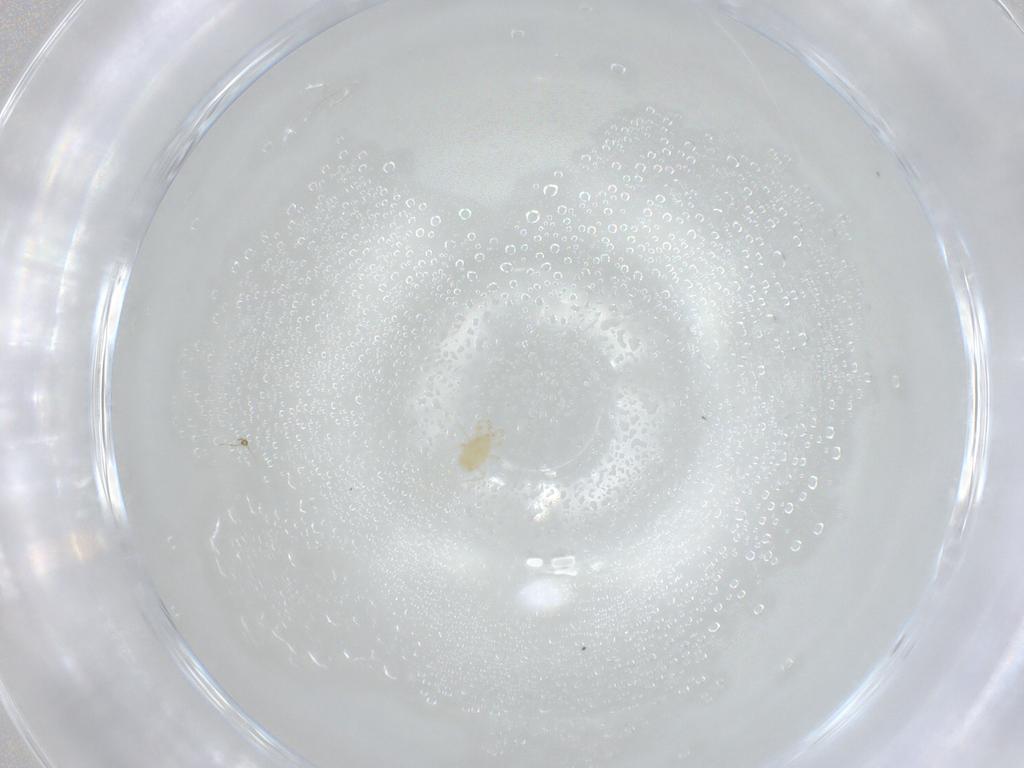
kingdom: Animalia
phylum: Arthropoda
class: Arachnida
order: Mesostigmata
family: Phytoseiidae
